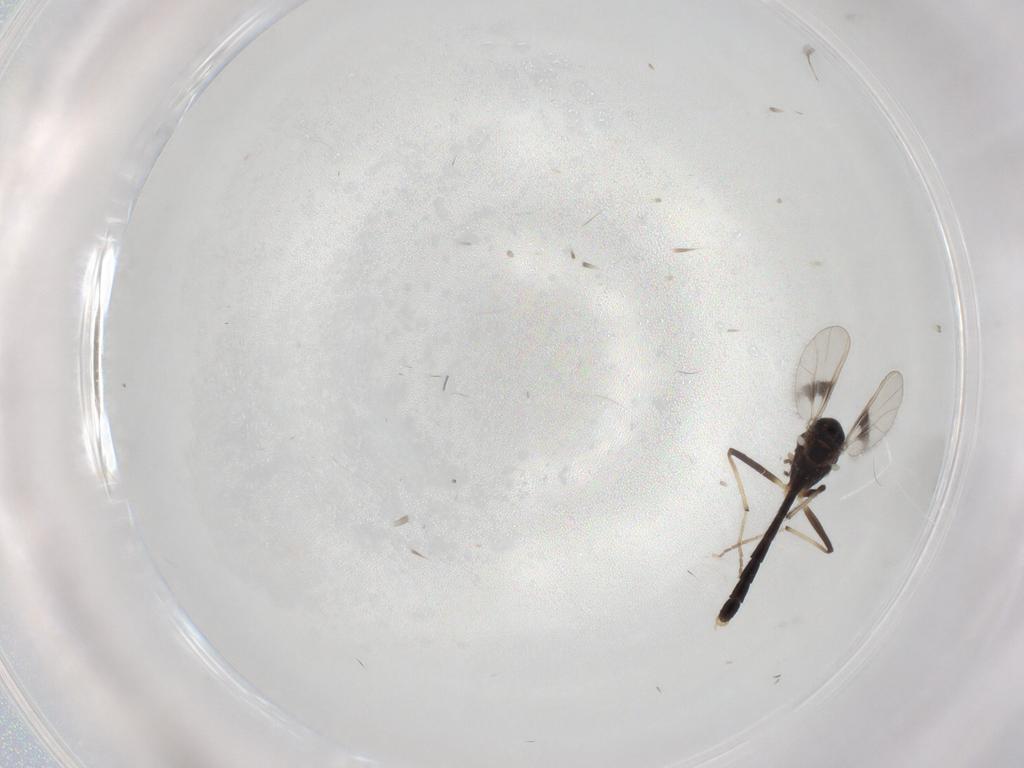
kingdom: Animalia
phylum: Arthropoda
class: Insecta
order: Diptera
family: Chironomidae
